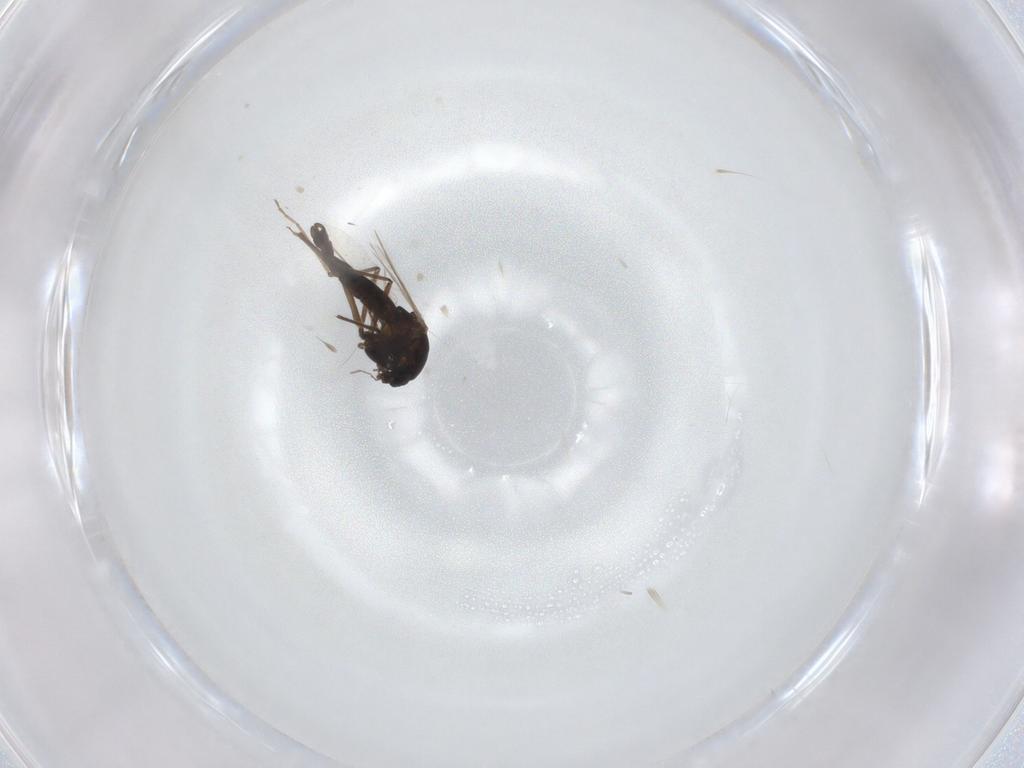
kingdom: Animalia
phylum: Arthropoda
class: Insecta
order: Diptera
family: Chironomidae
